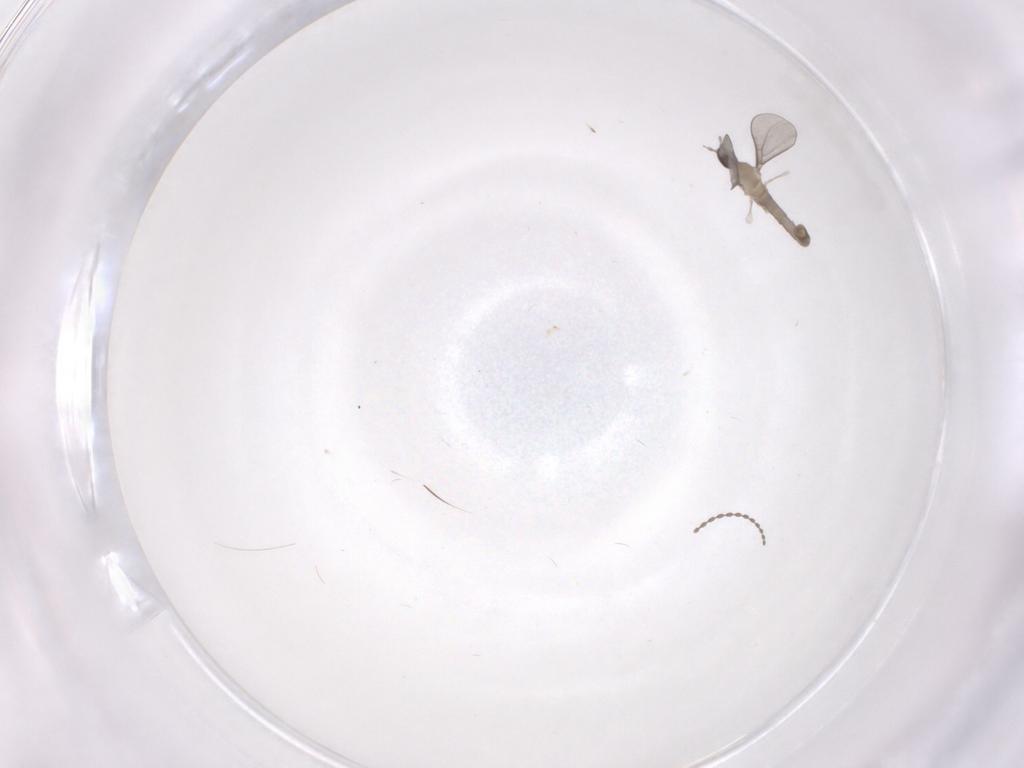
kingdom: Animalia
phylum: Arthropoda
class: Insecta
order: Diptera
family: Cecidomyiidae
